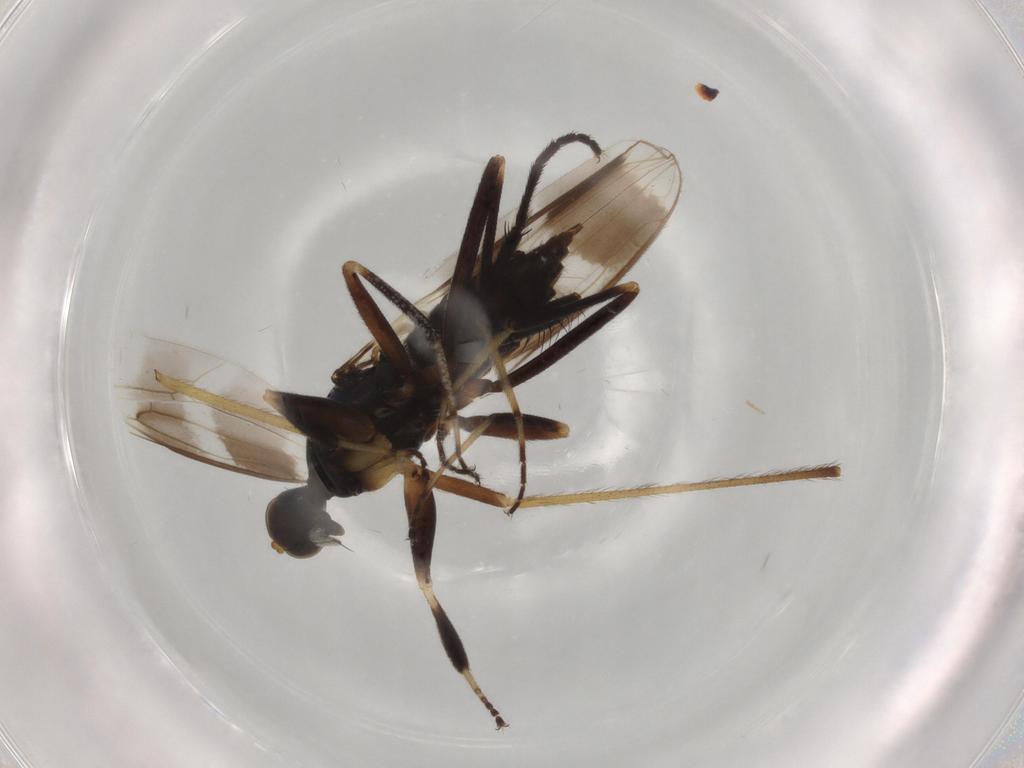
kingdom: Animalia
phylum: Arthropoda
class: Insecta
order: Diptera
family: Hybotidae
